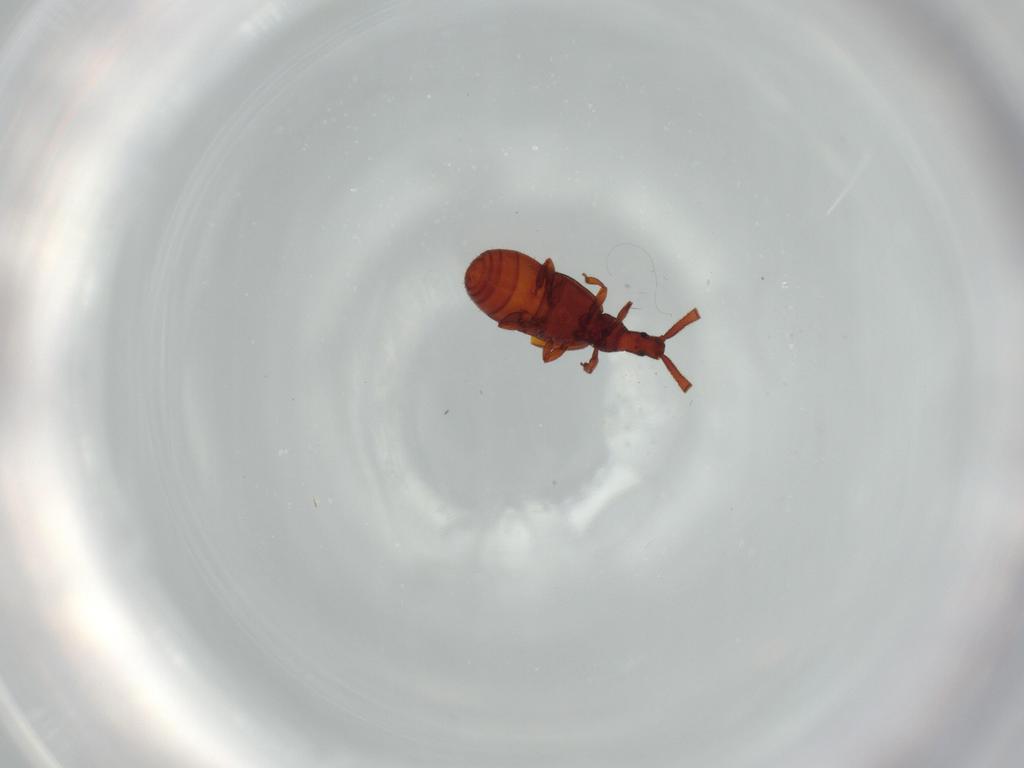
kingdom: Animalia
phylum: Arthropoda
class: Insecta
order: Coleoptera
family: Staphylinidae
